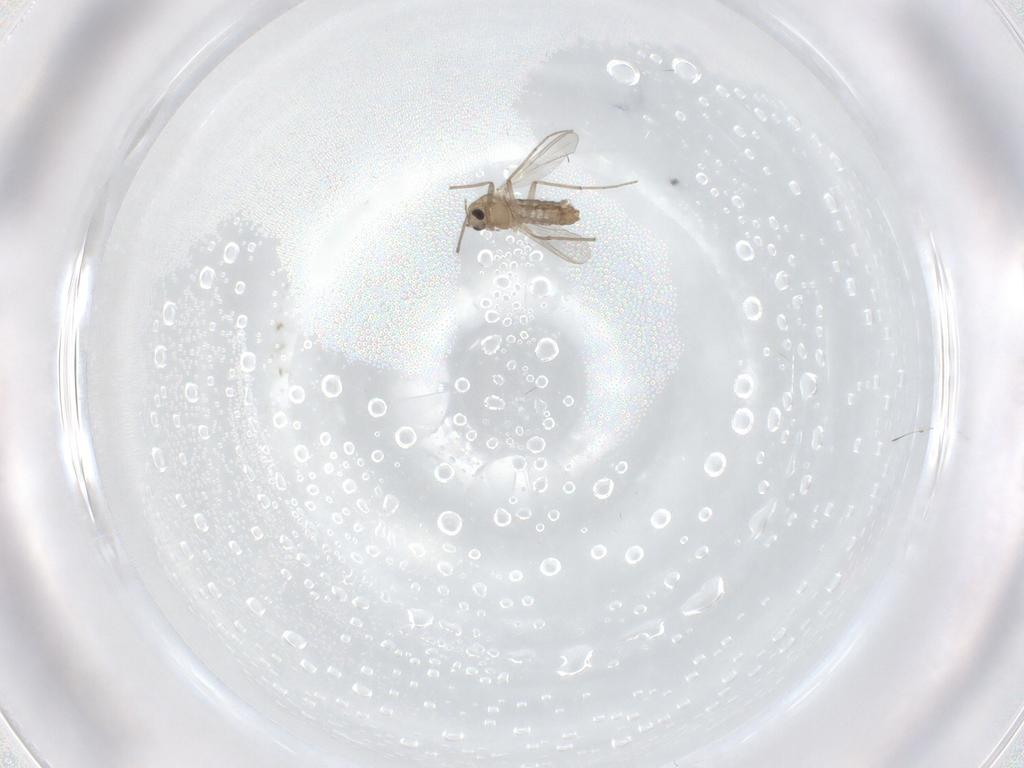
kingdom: Animalia
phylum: Arthropoda
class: Insecta
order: Diptera
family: Chironomidae
